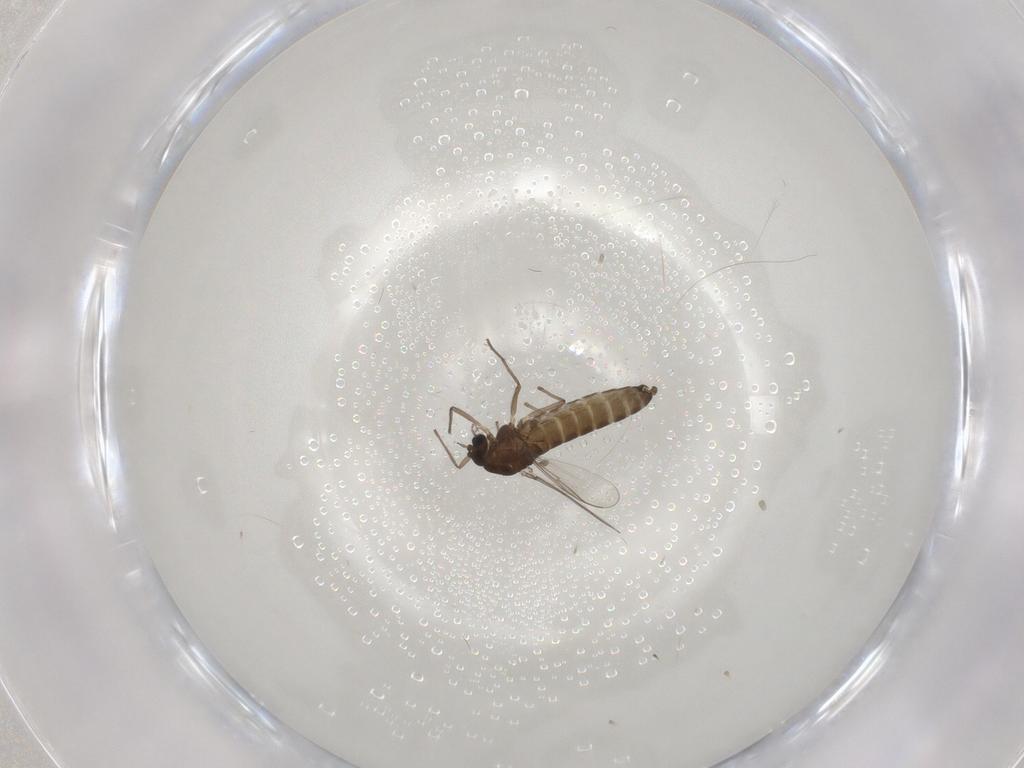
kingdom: Animalia
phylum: Arthropoda
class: Insecta
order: Diptera
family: Chironomidae
